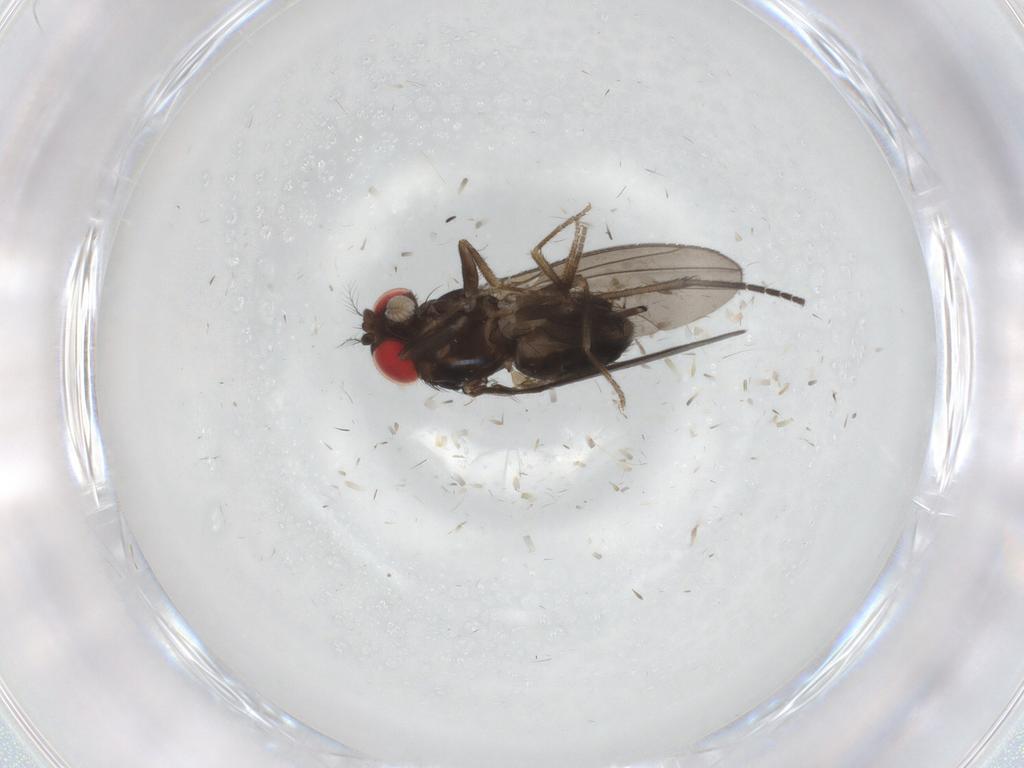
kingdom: Animalia
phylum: Arthropoda
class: Insecta
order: Diptera
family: Drosophilidae
